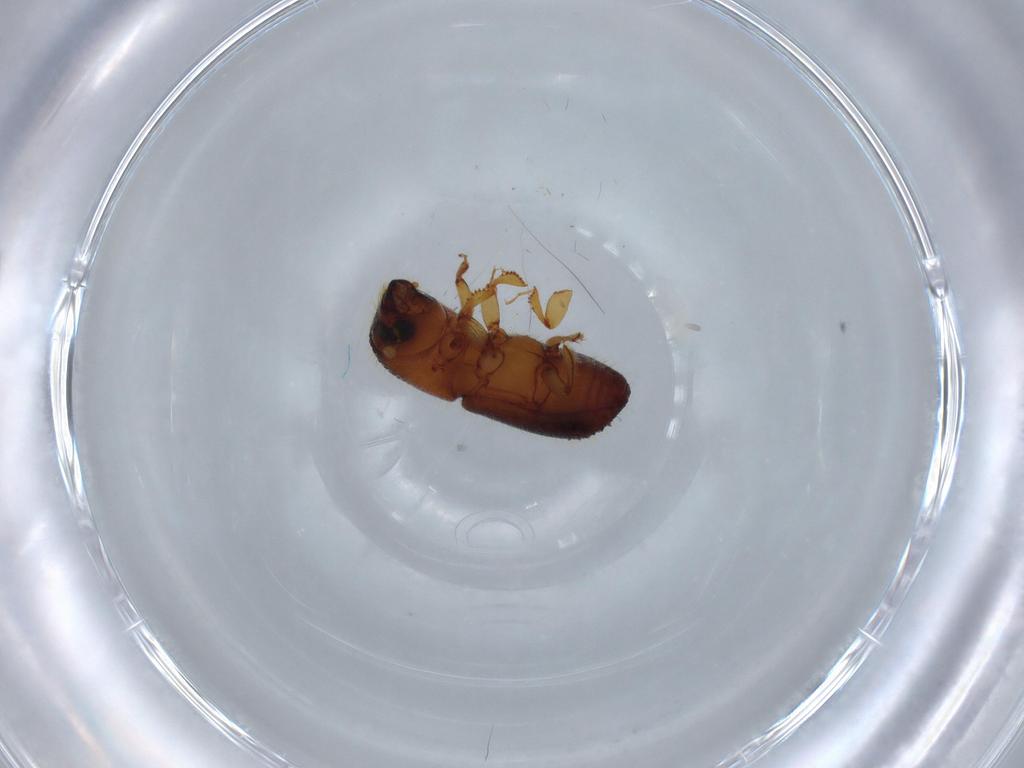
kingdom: Animalia
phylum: Arthropoda
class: Insecta
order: Coleoptera
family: Curculionidae
